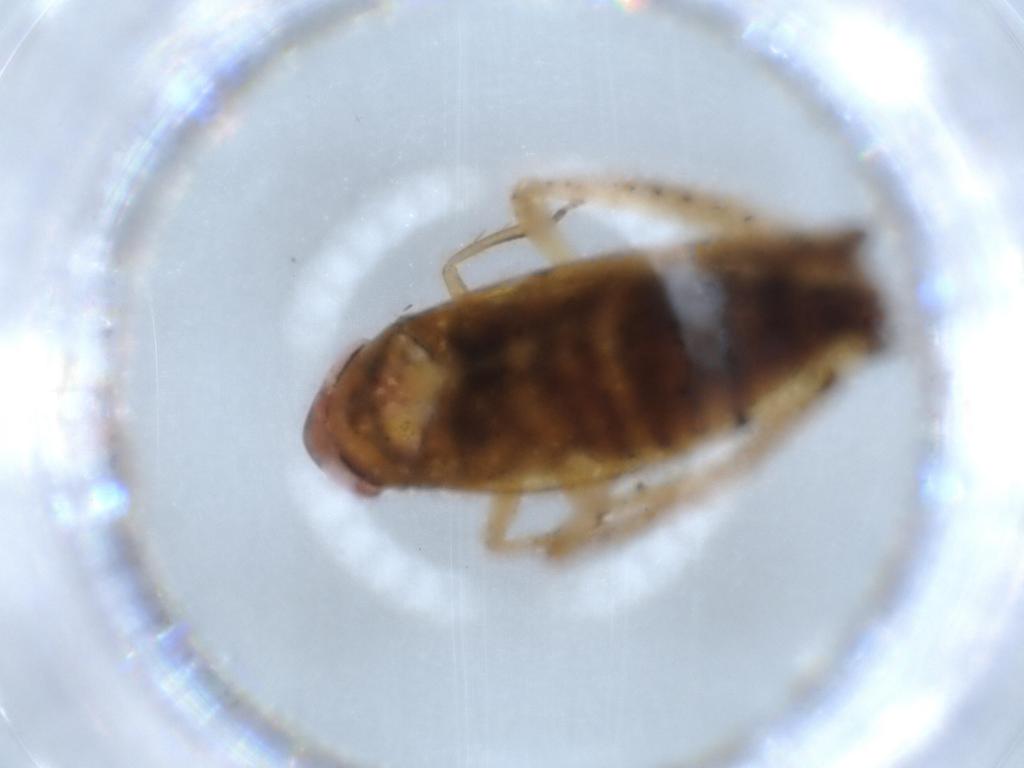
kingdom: Animalia
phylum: Arthropoda
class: Insecta
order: Hemiptera
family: Cicadellidae
